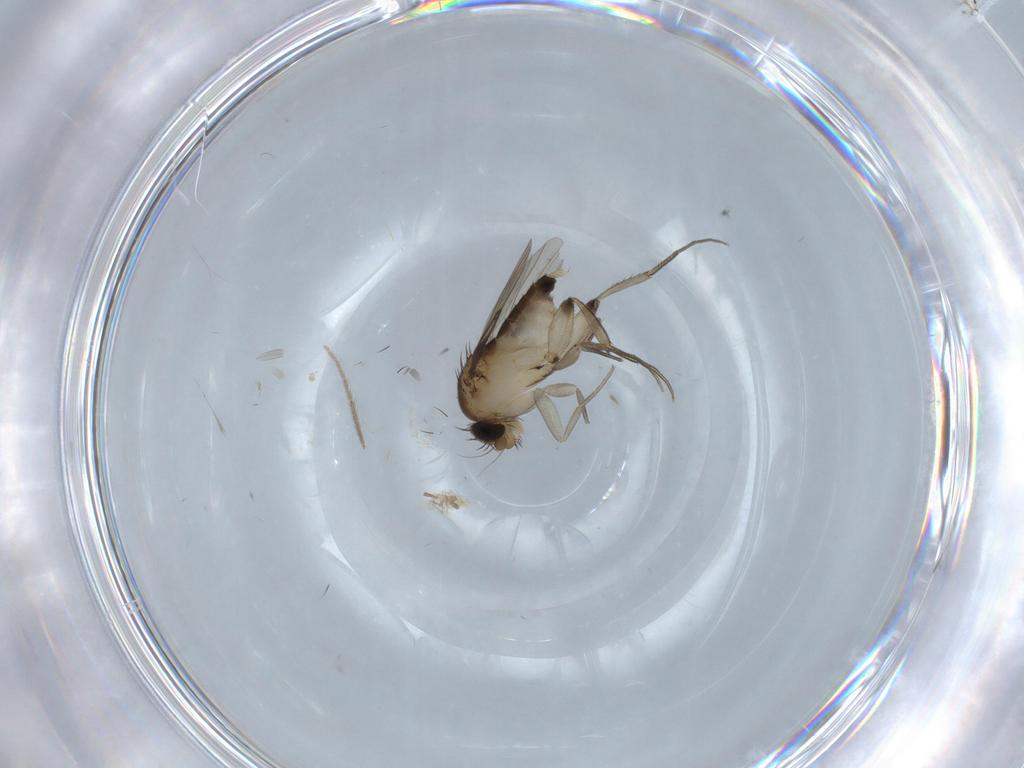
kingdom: Animalia
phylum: Arthropoda
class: Insecta
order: Diptera
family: Phoridae
